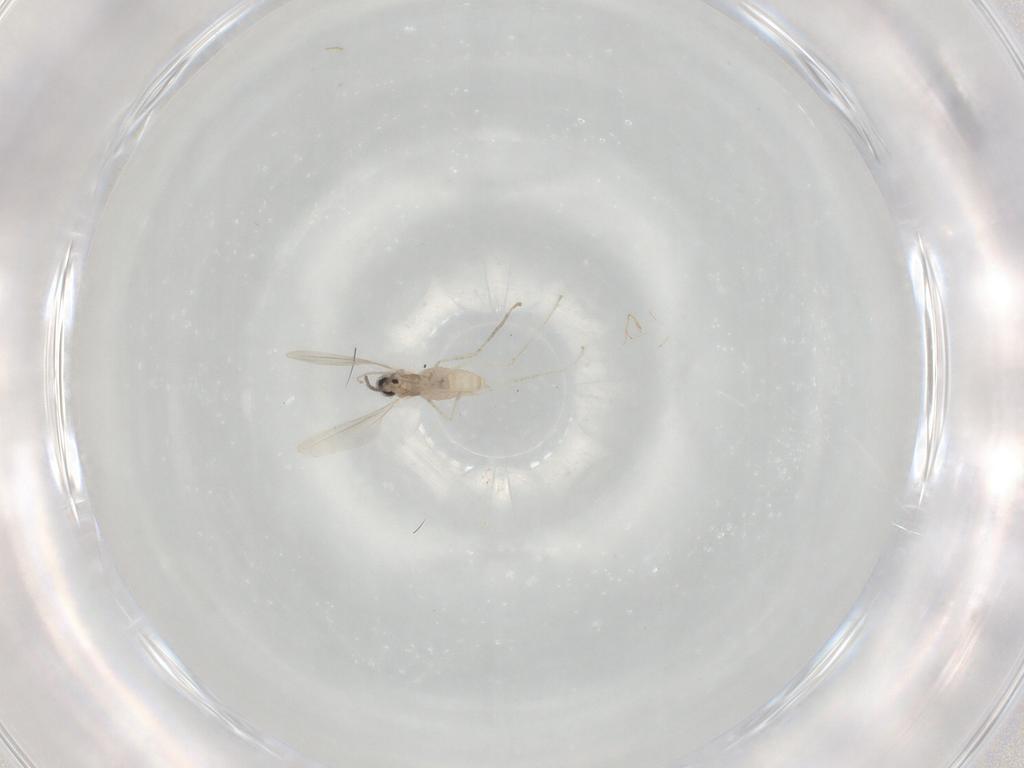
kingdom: Animalia
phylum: Arthropoda
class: Insecta
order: Diptera
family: Cecidomyiidae
